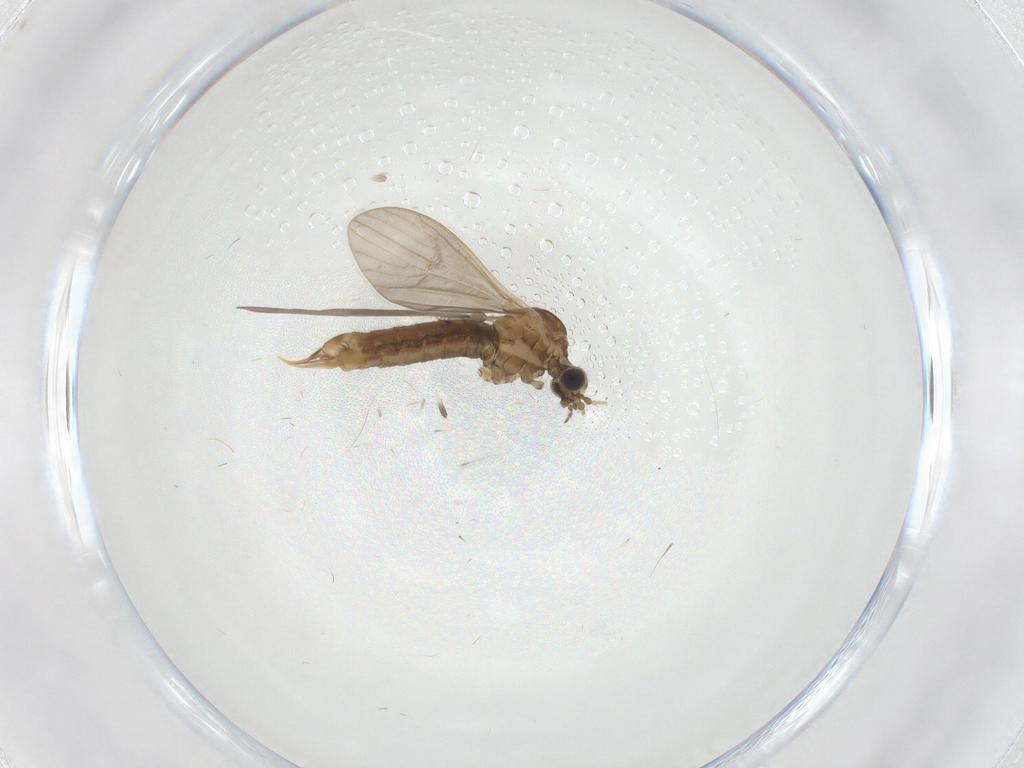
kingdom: Animalia
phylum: Arthropoda
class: Insecta
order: Diptera
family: Limoniidae
